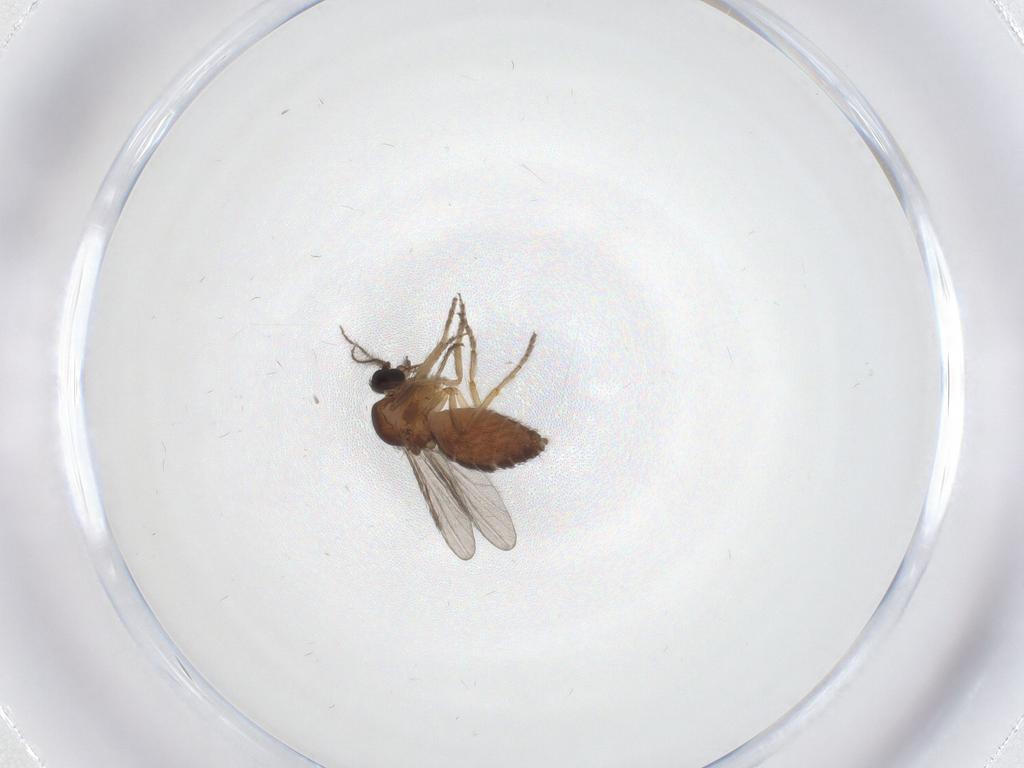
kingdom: Animalia
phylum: Arthropoda
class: Insecta
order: Diptera
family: Ceratopogonidae
